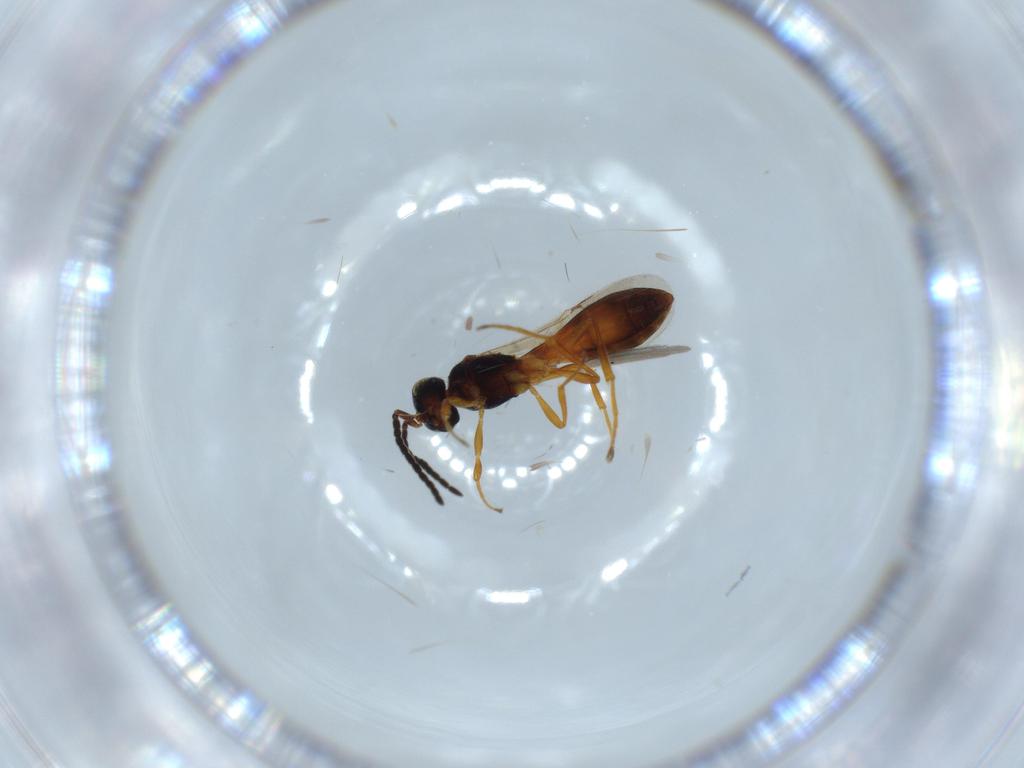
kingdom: Animalia
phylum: Arthropoda
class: Insecta
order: Hymenoptera
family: Scelionidae
